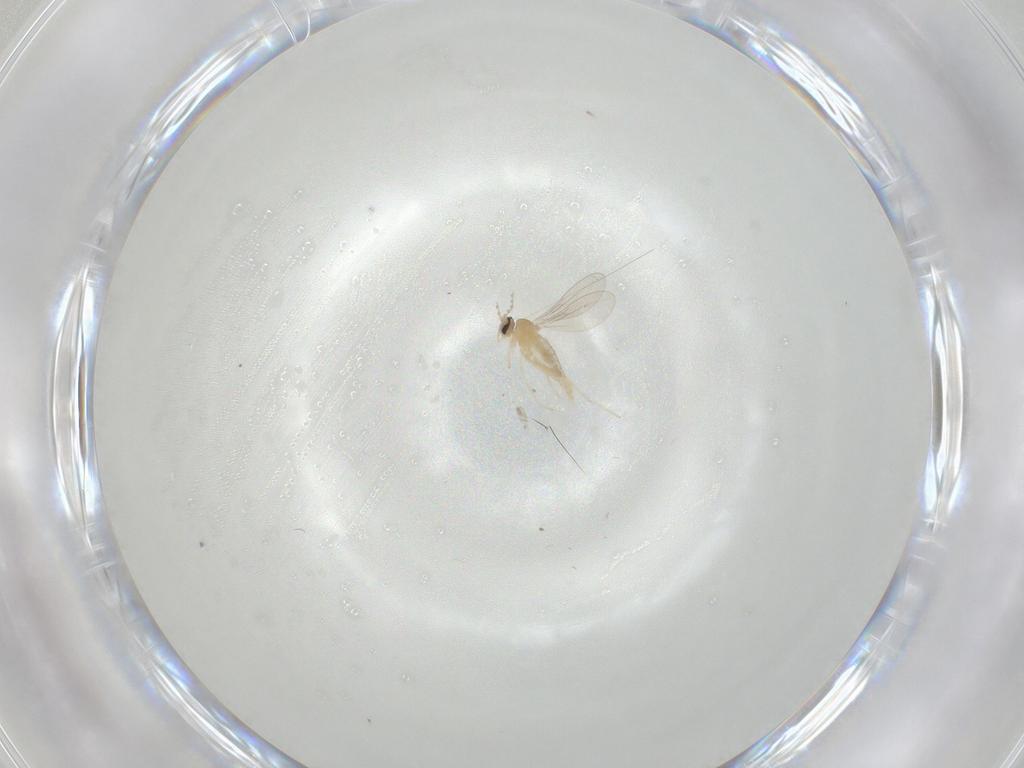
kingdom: Animalia
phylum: Arthropoda
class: Insecta
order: Diptera
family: Cecidomyiidae
